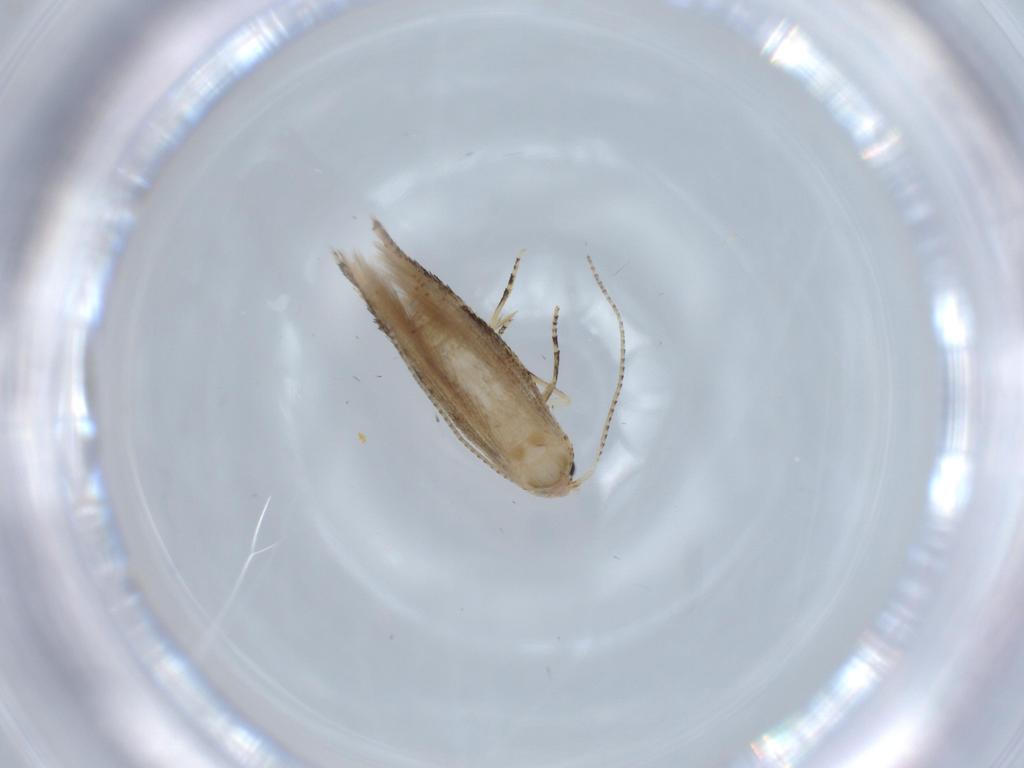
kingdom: Animalia
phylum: Arthropoda
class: Insecta
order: Lepidoptera
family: Bucculatricidae
